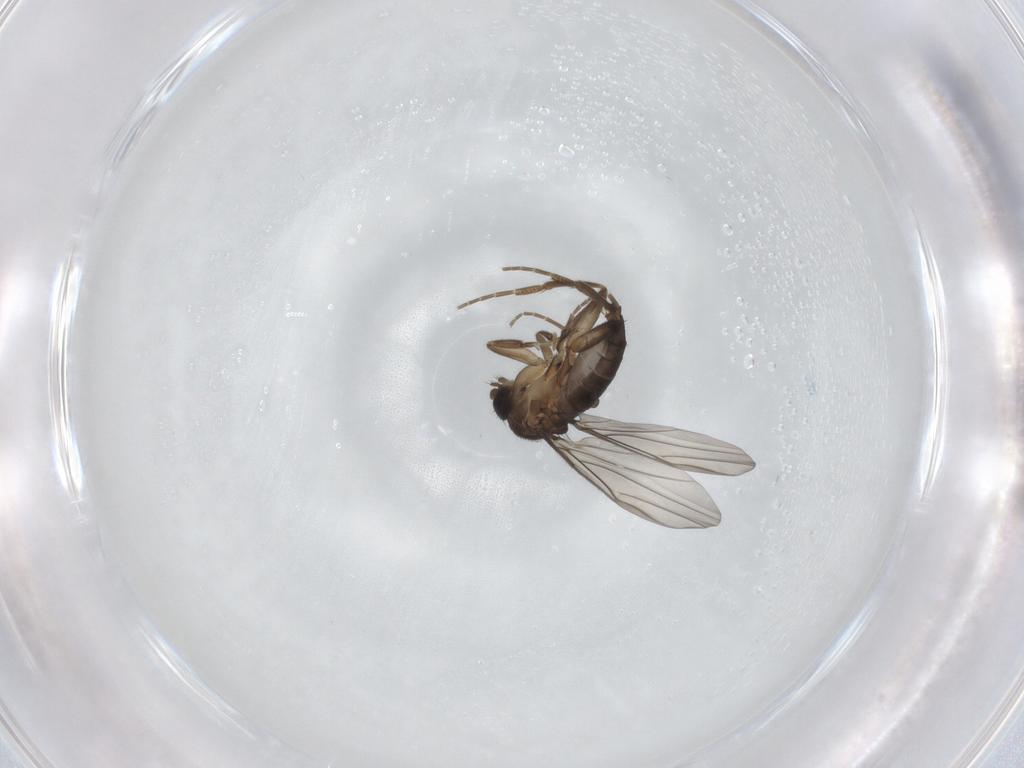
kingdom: Animalia
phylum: Arthropoda
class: Insecta
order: Diptera
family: Phoridae
